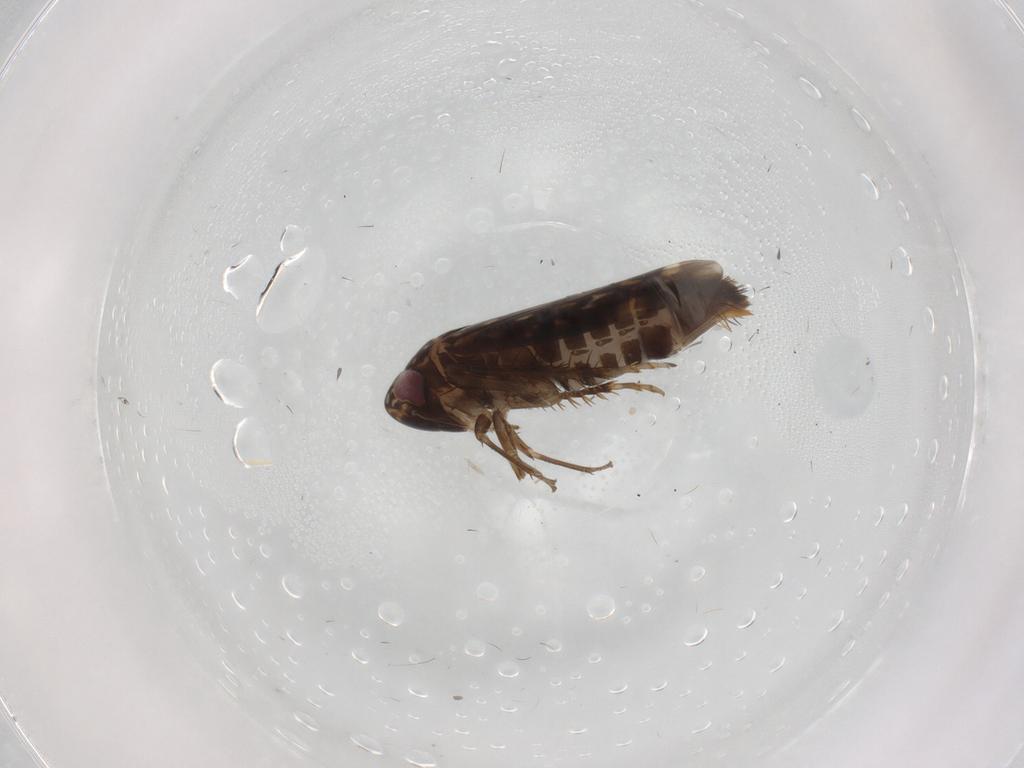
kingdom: Animalia
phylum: Arthropoda
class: Insecta
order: Hemiptera
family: Cicadellidae
